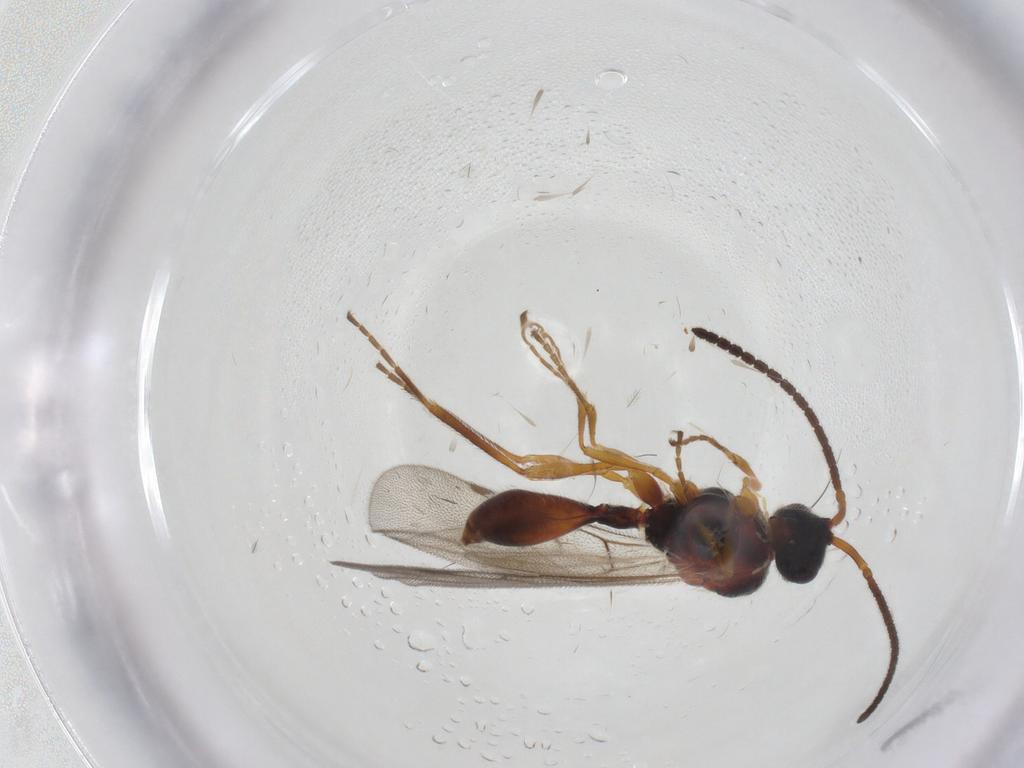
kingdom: Animalia
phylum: Arthropoda
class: Insecta
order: Hymenoptera
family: Diapriidae
